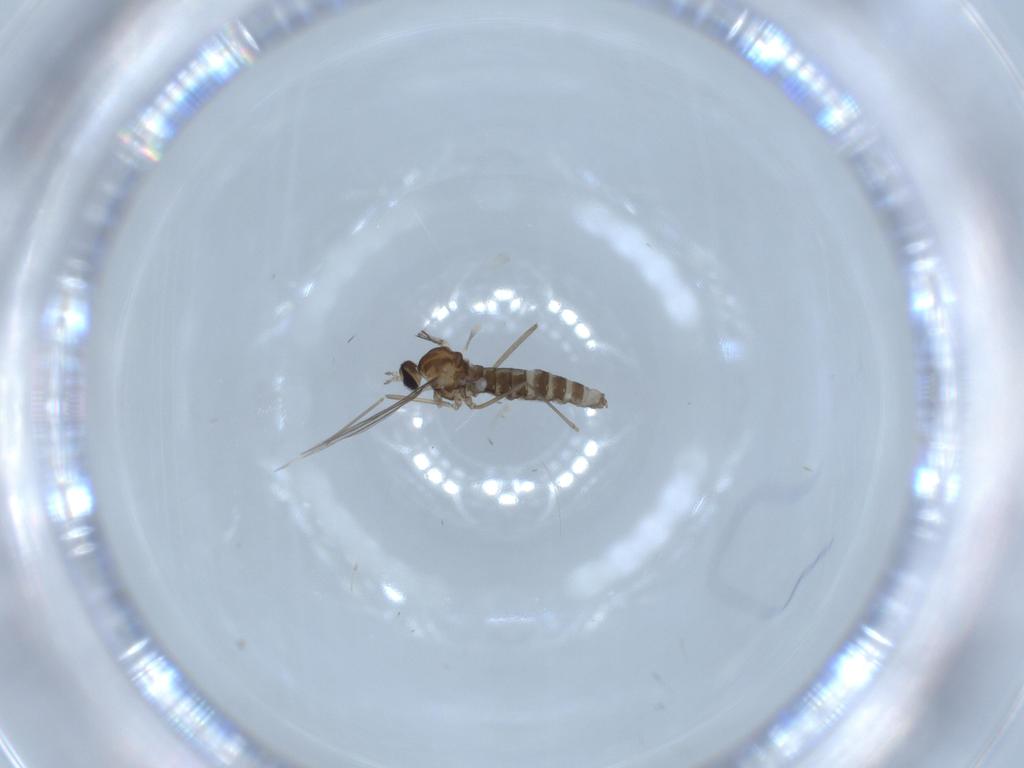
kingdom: Animalia
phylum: Arthropoda
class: Insecta
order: Diptera
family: Cecidomyiidae
